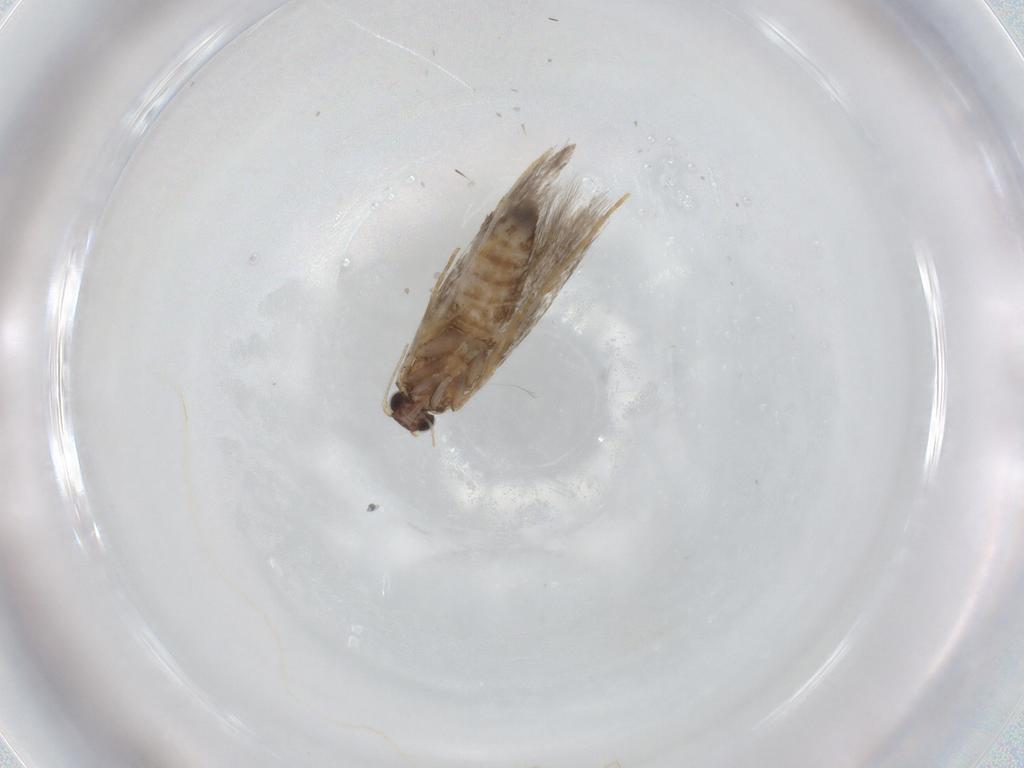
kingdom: Animalia
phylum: Arthropoda
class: Insecta
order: Lepidoptera
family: Tineidae
